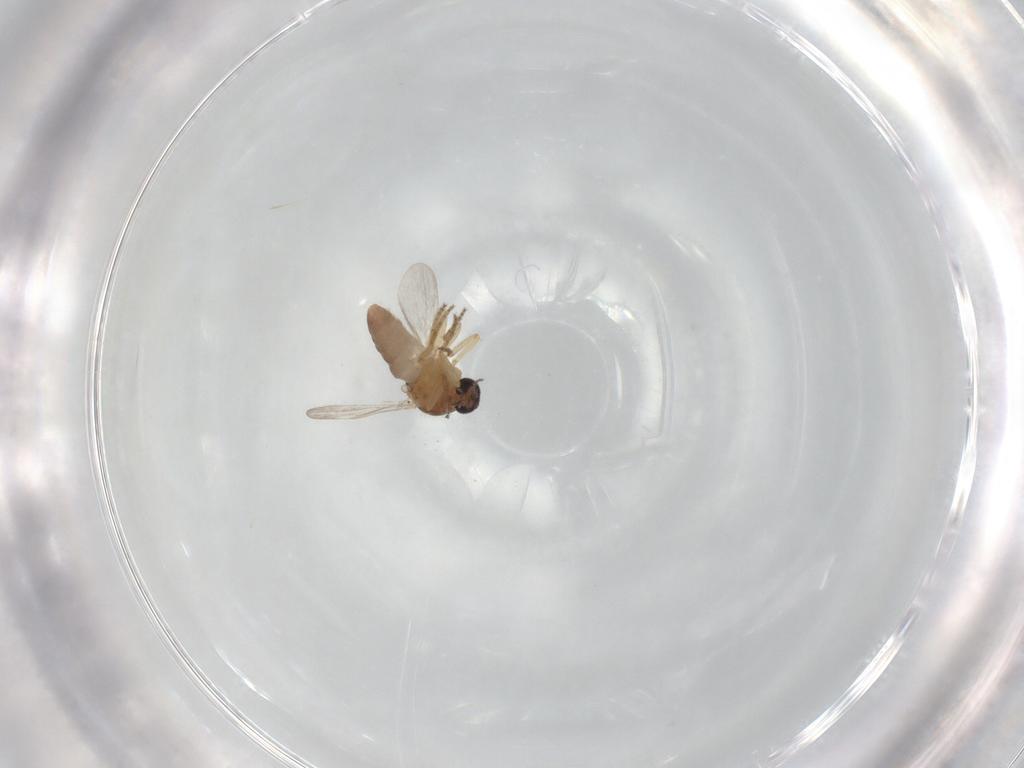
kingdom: Animalia
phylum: Arthropoda
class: Insecta
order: Diptera
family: Ceratopogonidae
